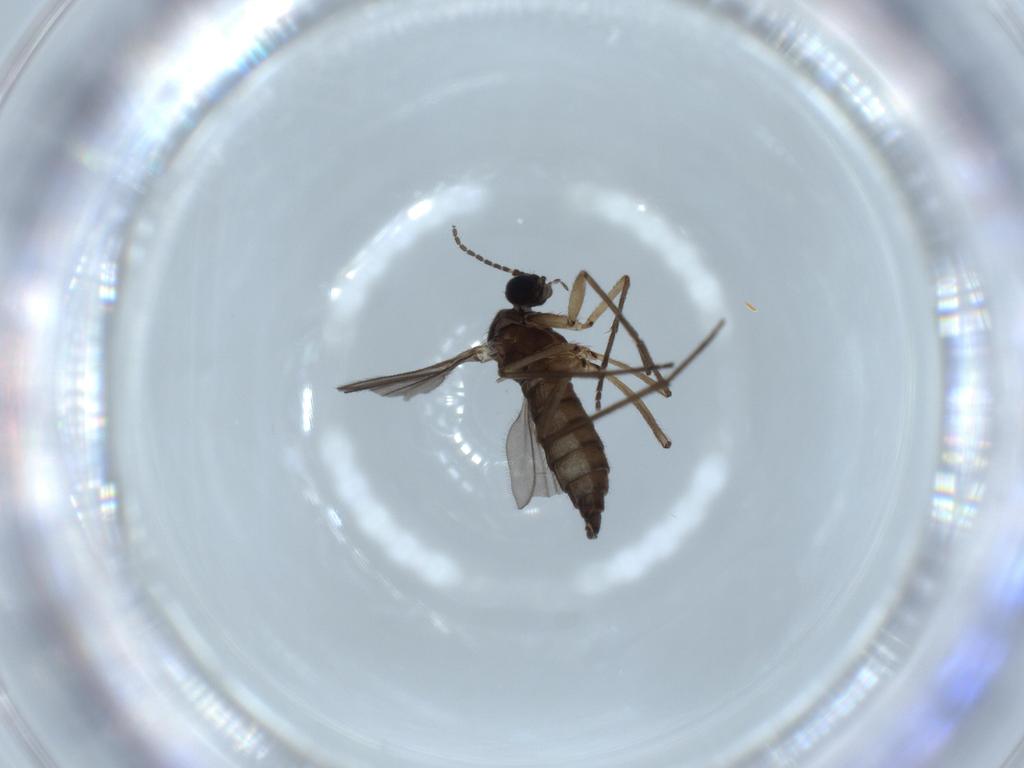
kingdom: Animalia
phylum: Arthropoda
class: Insecta
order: Diptera
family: Sciaridae
